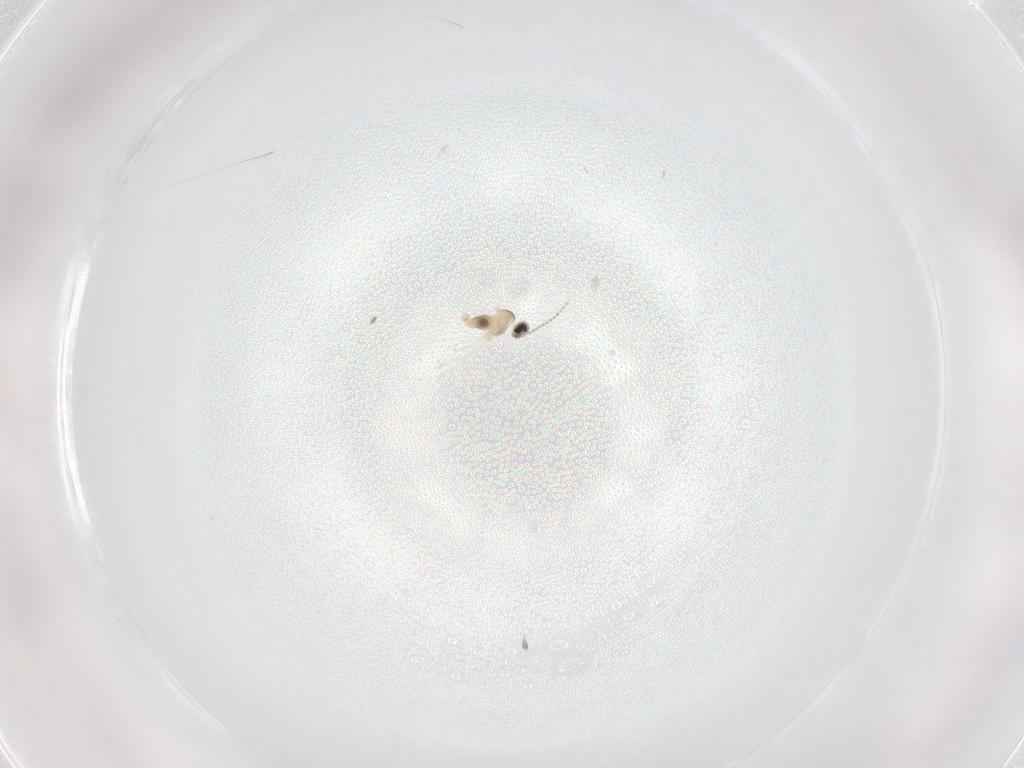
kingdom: Animalia
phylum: Arthropoda
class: Insecta
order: Diptera
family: Cecidomyiidae
